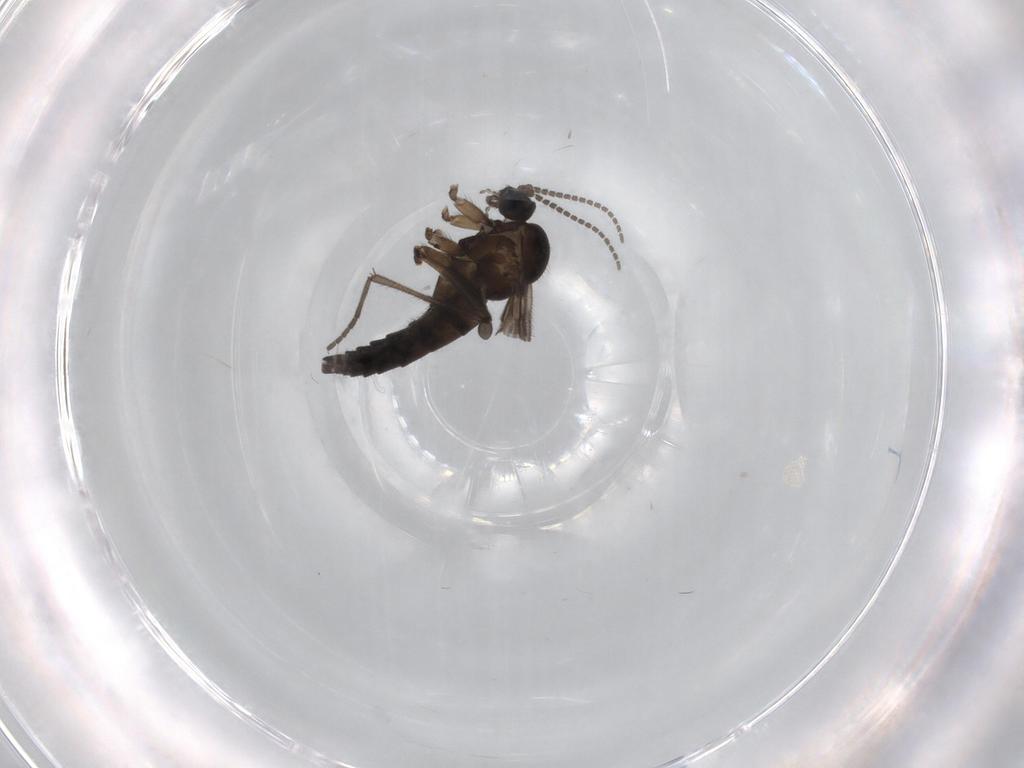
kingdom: Animalia
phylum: Arthropoda
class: Insecta
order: Diptera
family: Sciaridae
